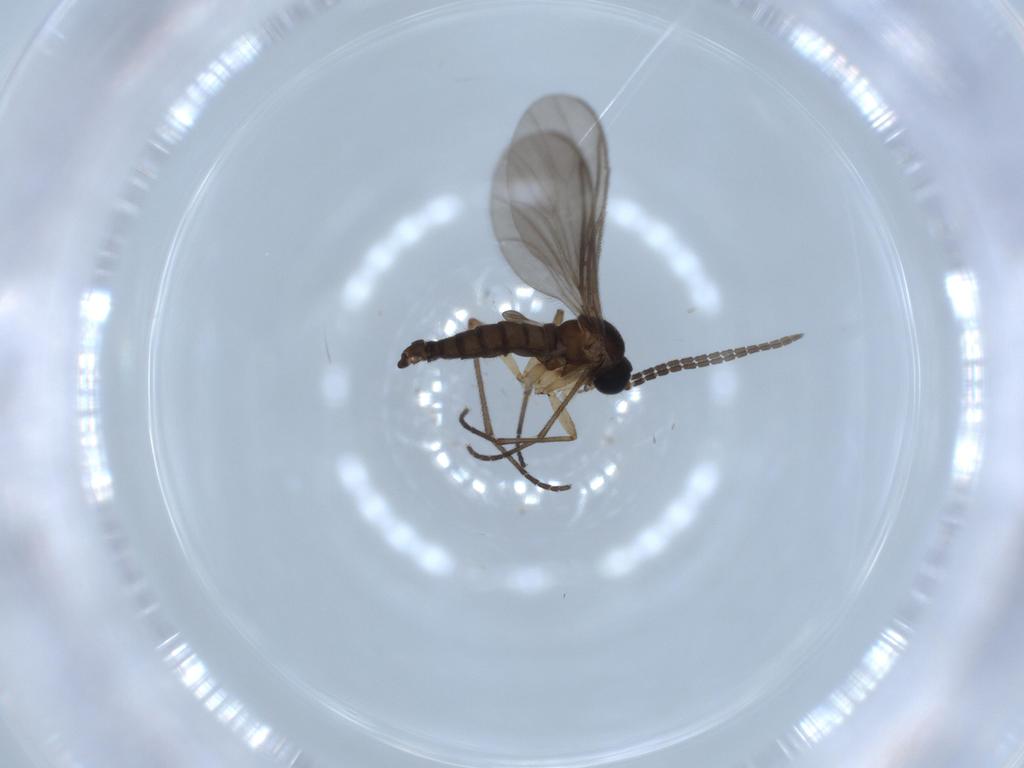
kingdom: Animalia
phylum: Arthropoda
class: Insecta
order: Diptera
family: Sciaridae
